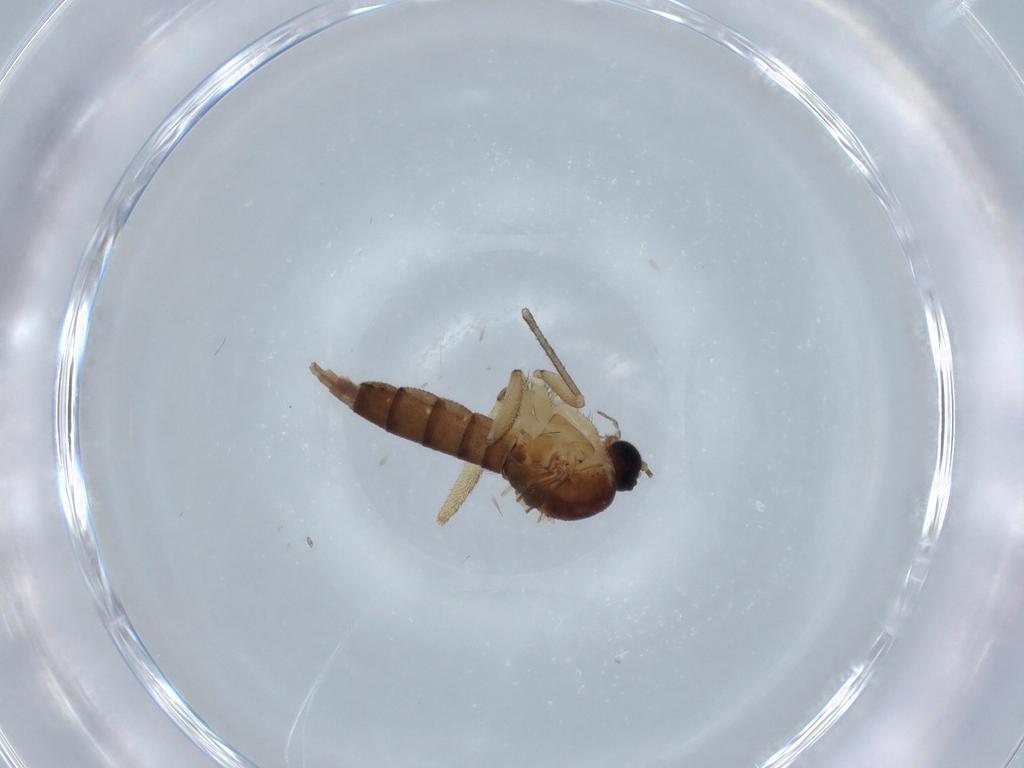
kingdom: Animalia
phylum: Arthropoda
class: Insecta
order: Diptera
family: Sciaridae
